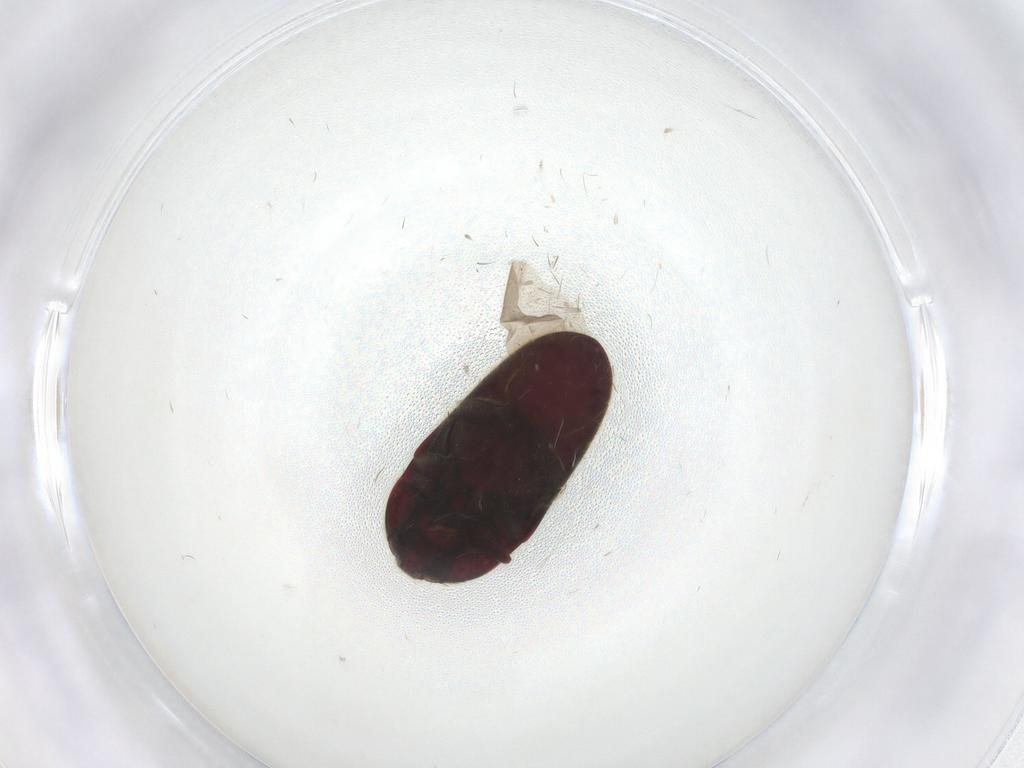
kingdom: Animalia
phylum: Arthropoda
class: Insecta
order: Coleoptera
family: Throscidae
